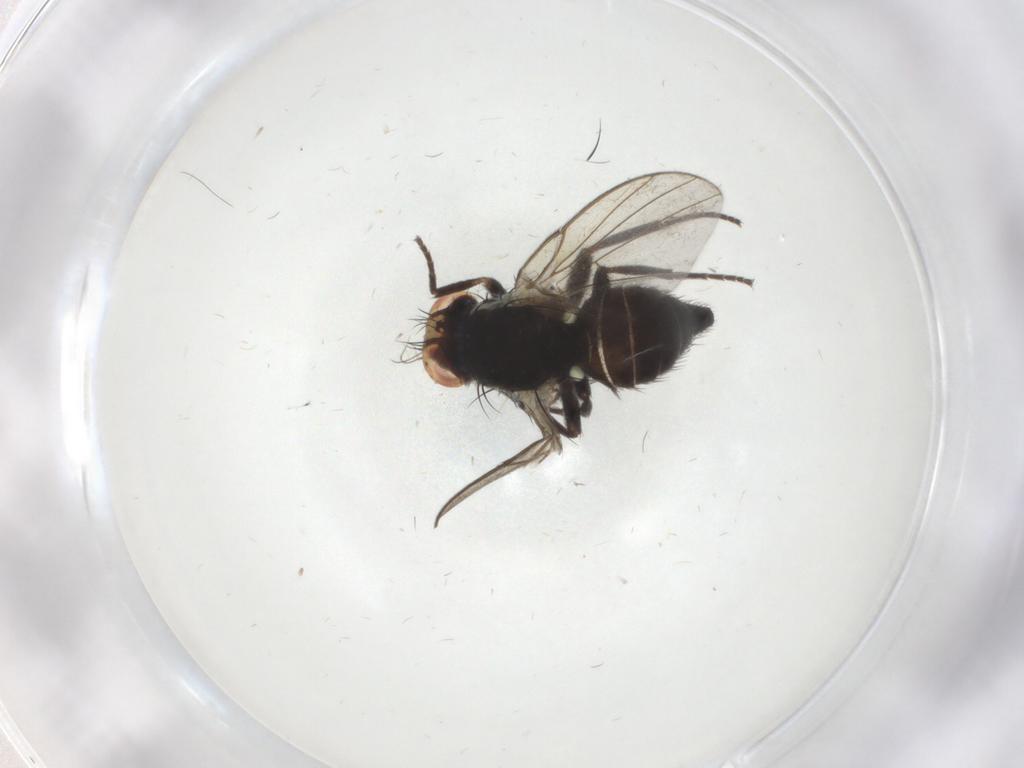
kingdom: Animalia
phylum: Arthropoda
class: Insecta
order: Diptera
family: Agromyzidae
